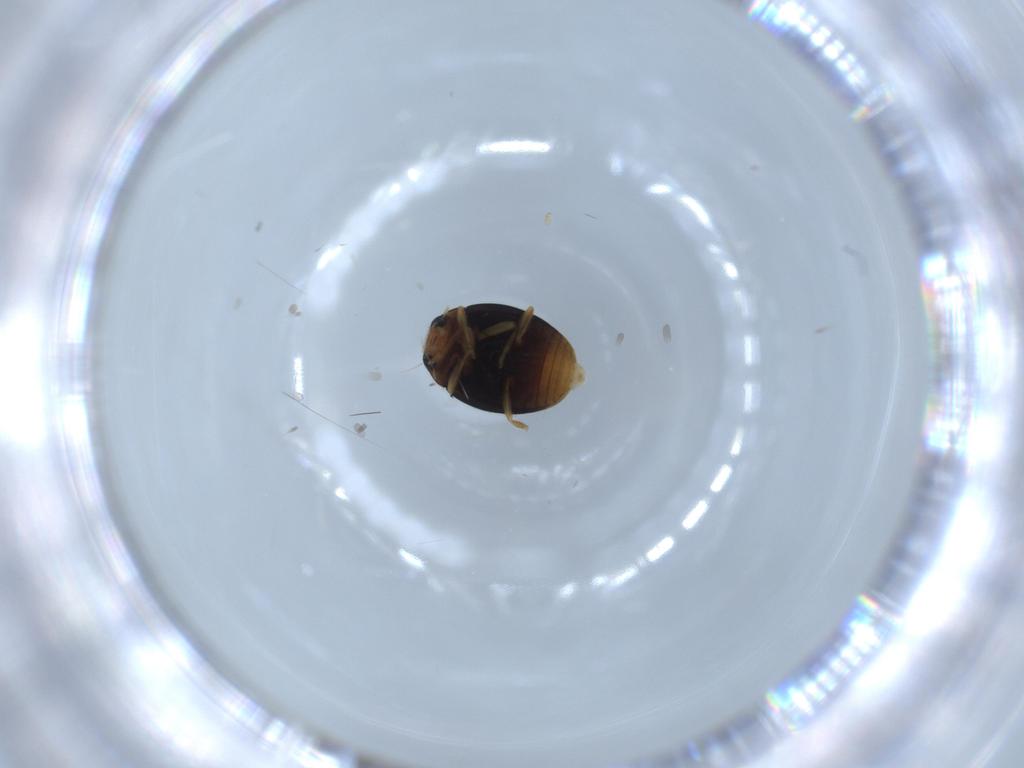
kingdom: Animalia
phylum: Arthropoda
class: Insecta
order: Coleoptera
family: Coccinellidae
